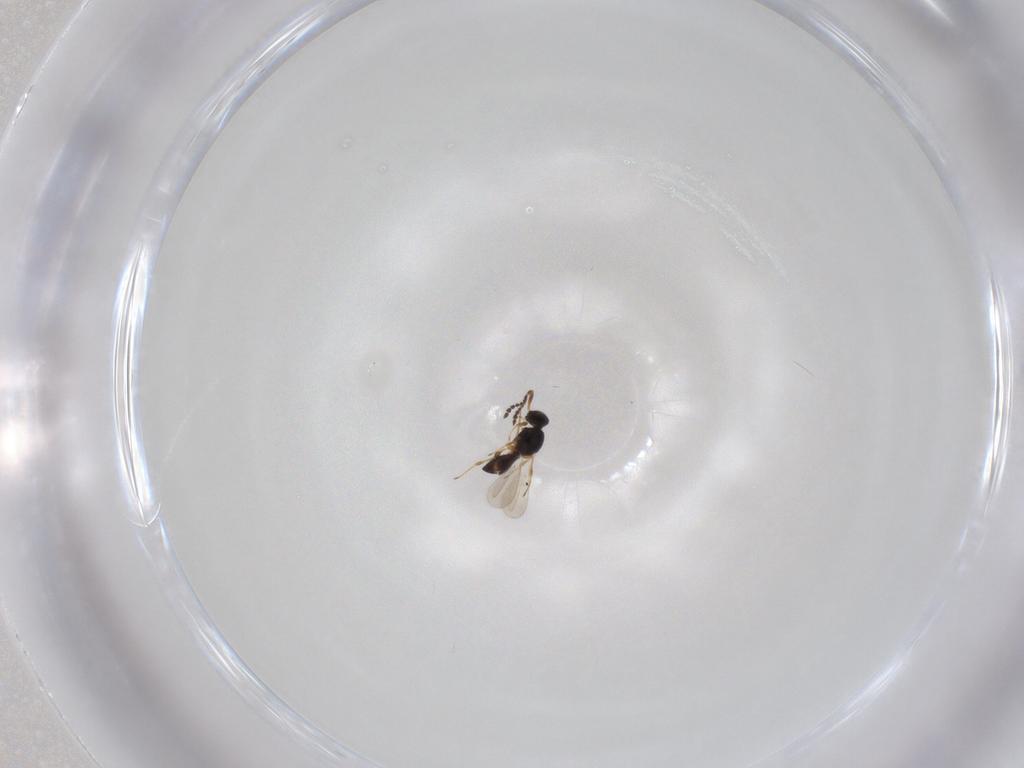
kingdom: Animalia
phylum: Arthropoda
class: Insecta
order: Hymenoptera
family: Platygastridae
